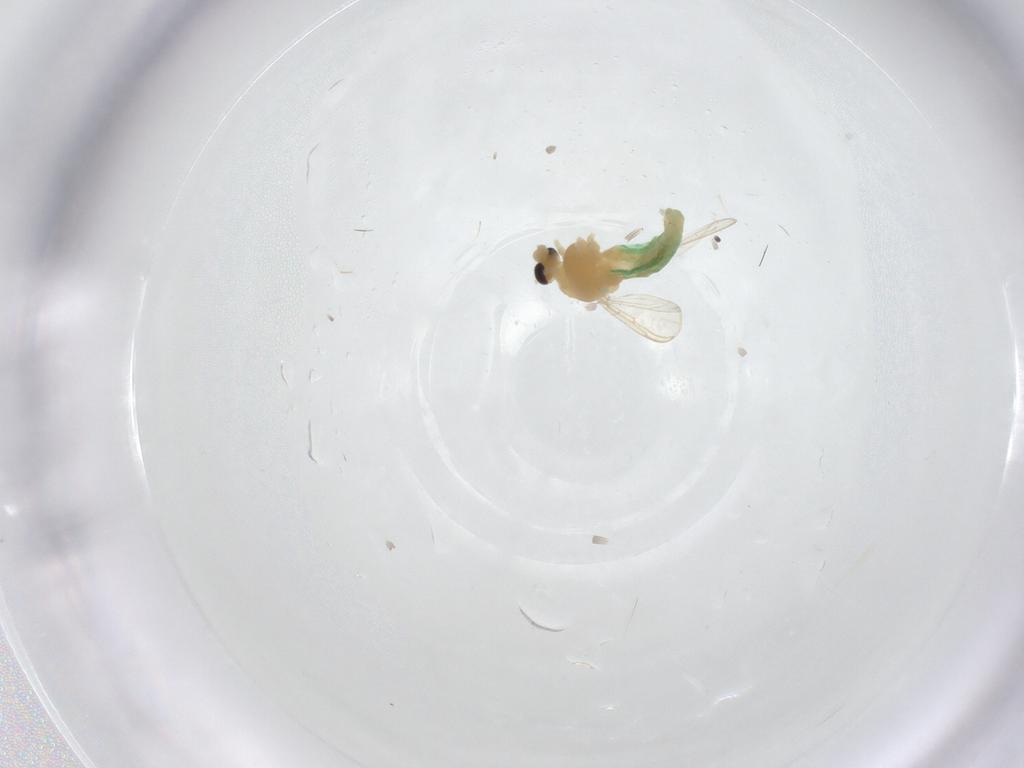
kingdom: Animalia
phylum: Arthropoda
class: Insecta
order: Diptera
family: Chironomidae
